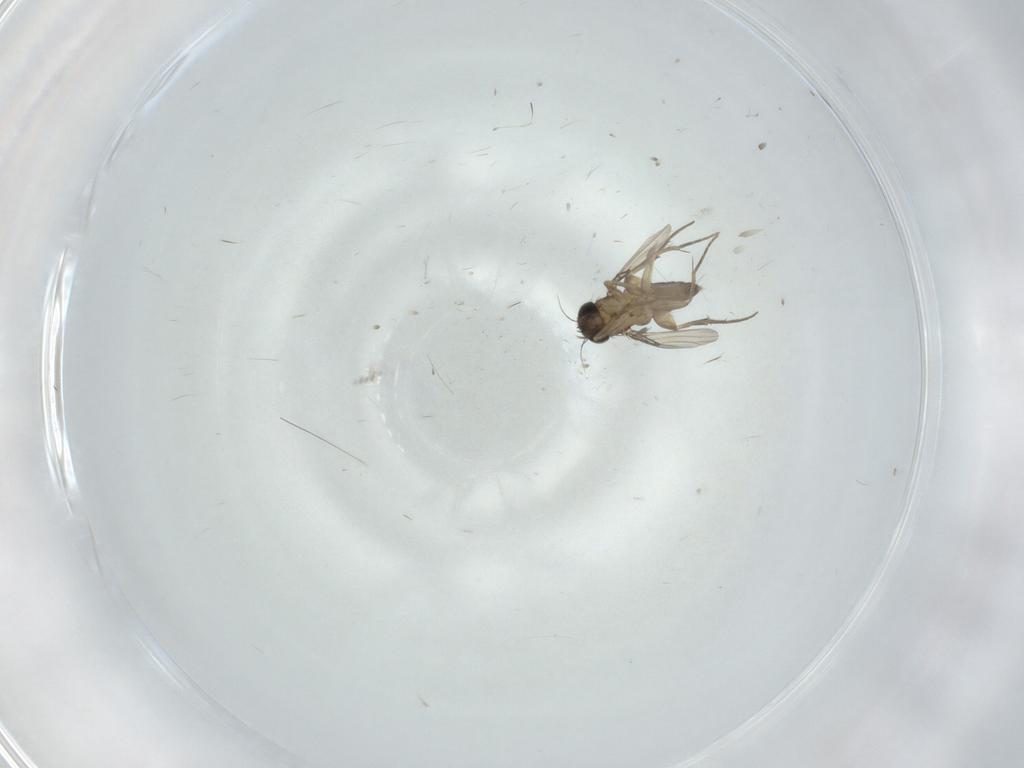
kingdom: Animalia
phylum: Arthropoda
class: Insecta
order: Diptera
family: Phoridae
